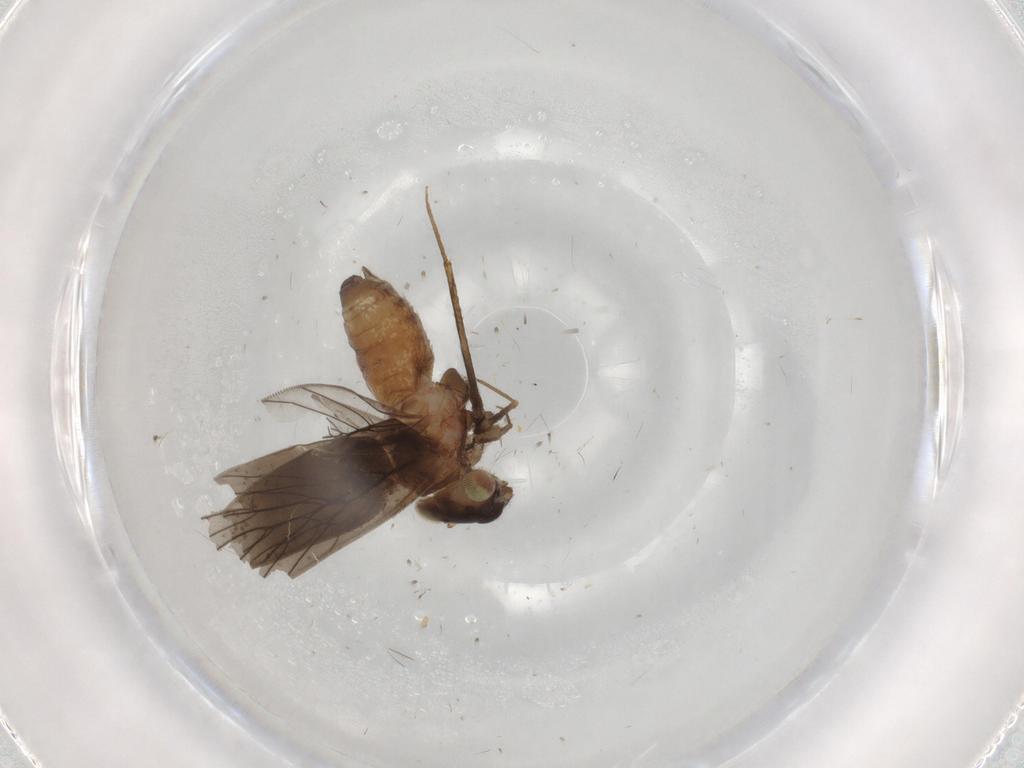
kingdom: Animalia
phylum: Arthropoda
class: Insecta
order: Psocodea
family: Lepidopsocidae
